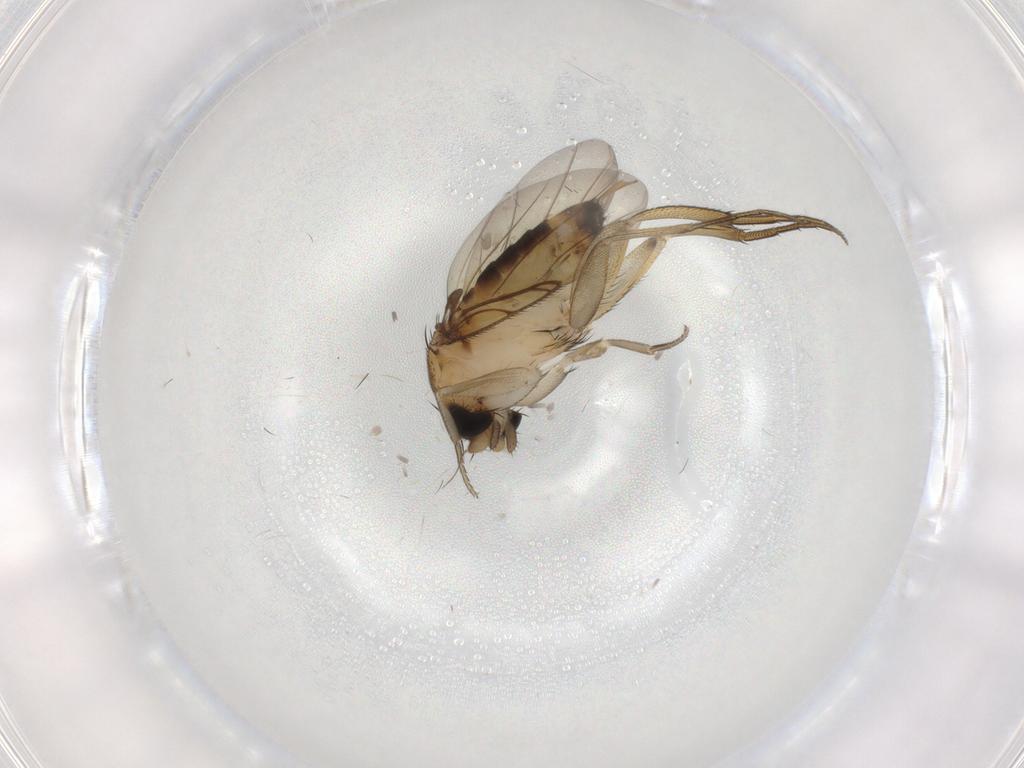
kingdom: Animalia
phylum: Arthropoda
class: Insecta
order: Diptera
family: Phoridae
